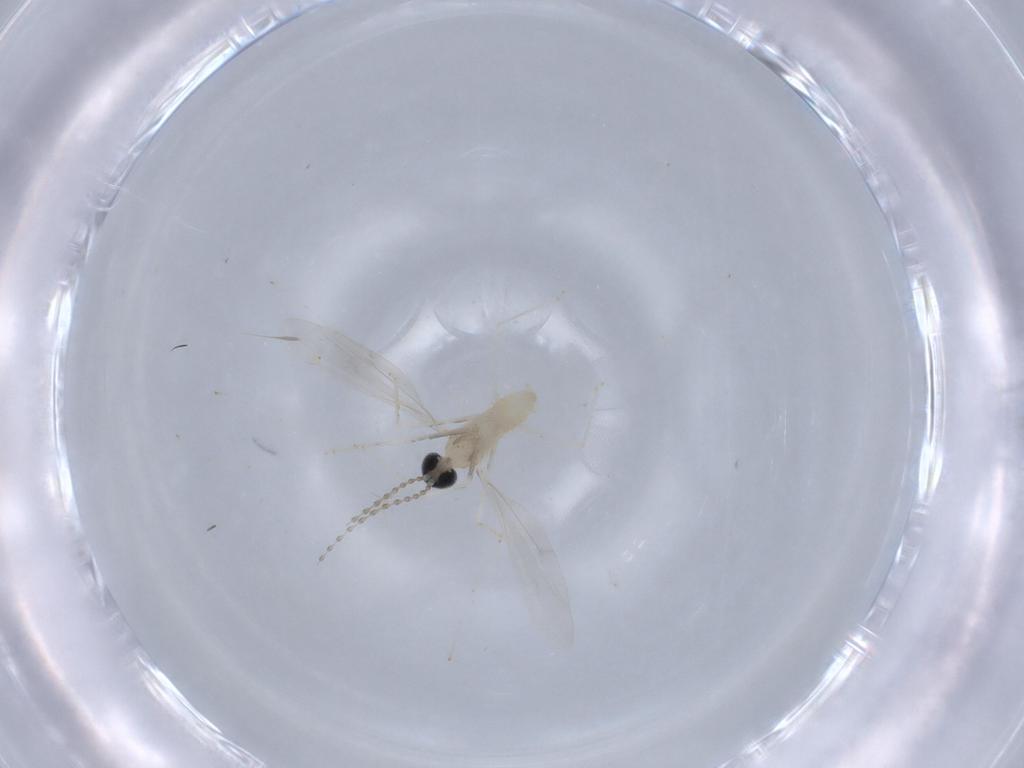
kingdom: Animalia
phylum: Arthropoda
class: Insecta
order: Diptera
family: Cecidomyiidae
